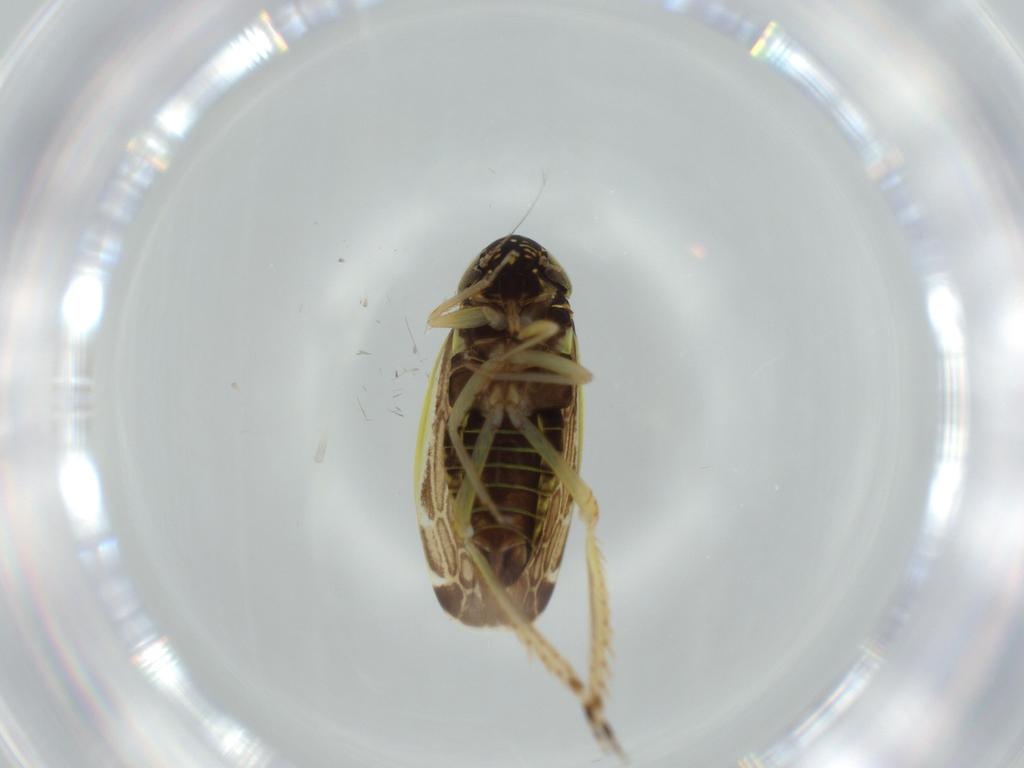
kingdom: Animalia
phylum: Arthropoda
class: Insecta
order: Hemiptera
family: Cicadellidae
